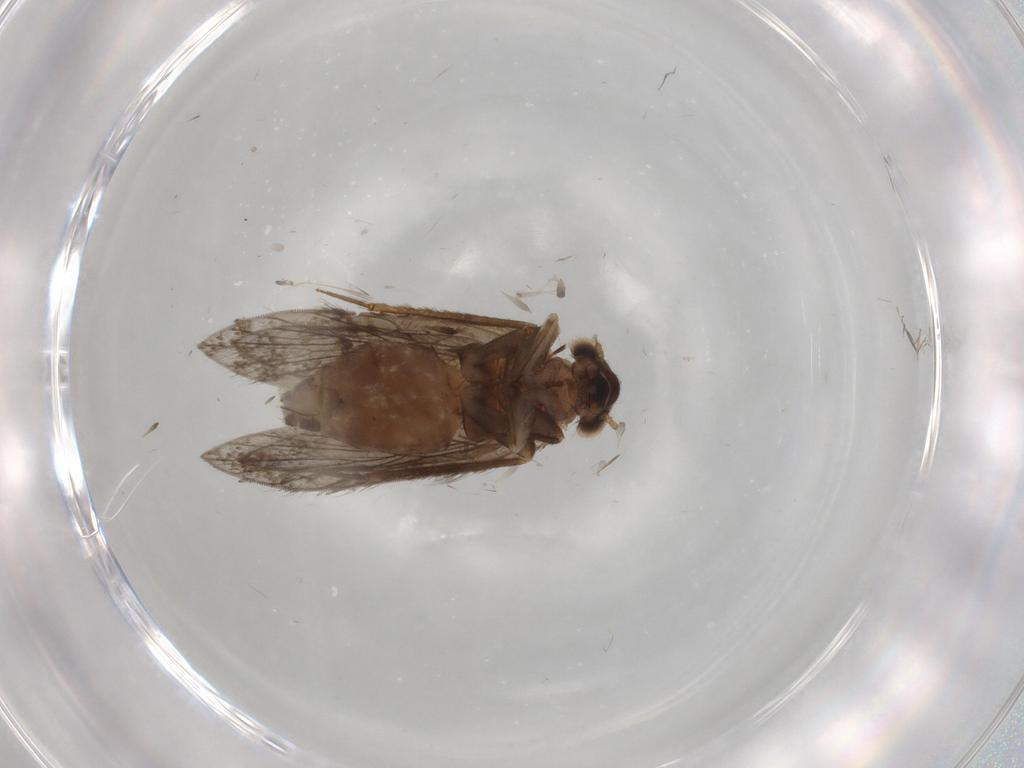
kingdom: Animalia
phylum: Arthropoda
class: Insecta
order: Psocodea
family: Lepidopsocidae
